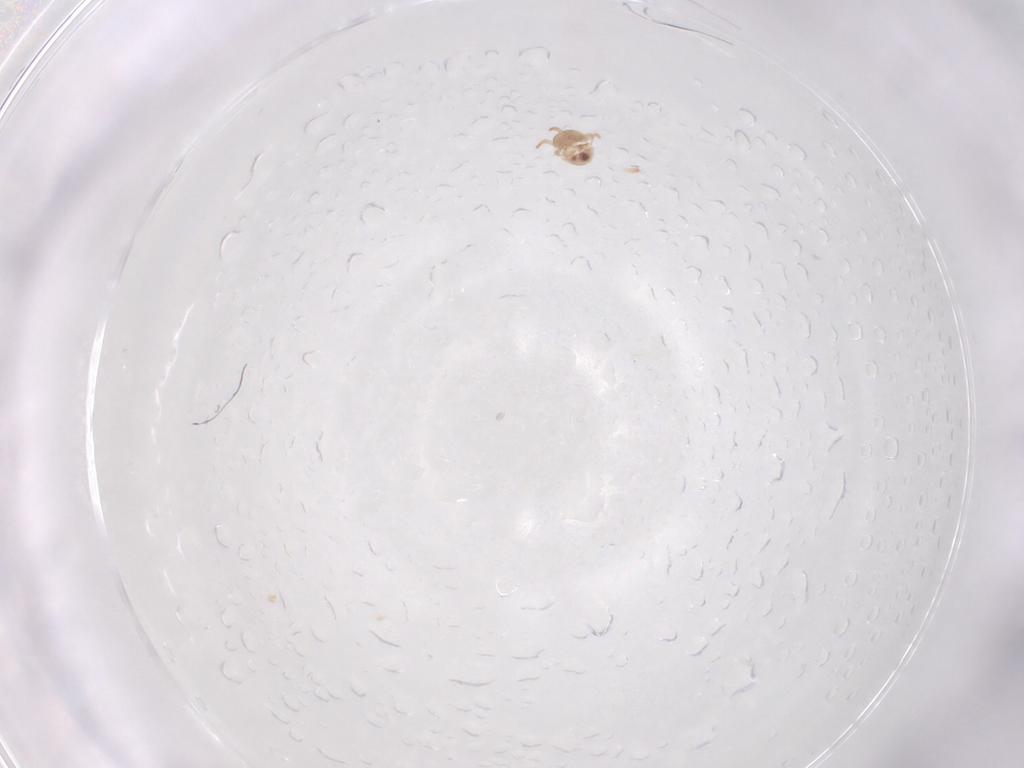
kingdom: Animalia
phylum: Arthropoda
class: Arachnida
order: Mesostigmata
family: Phytoseiidae
